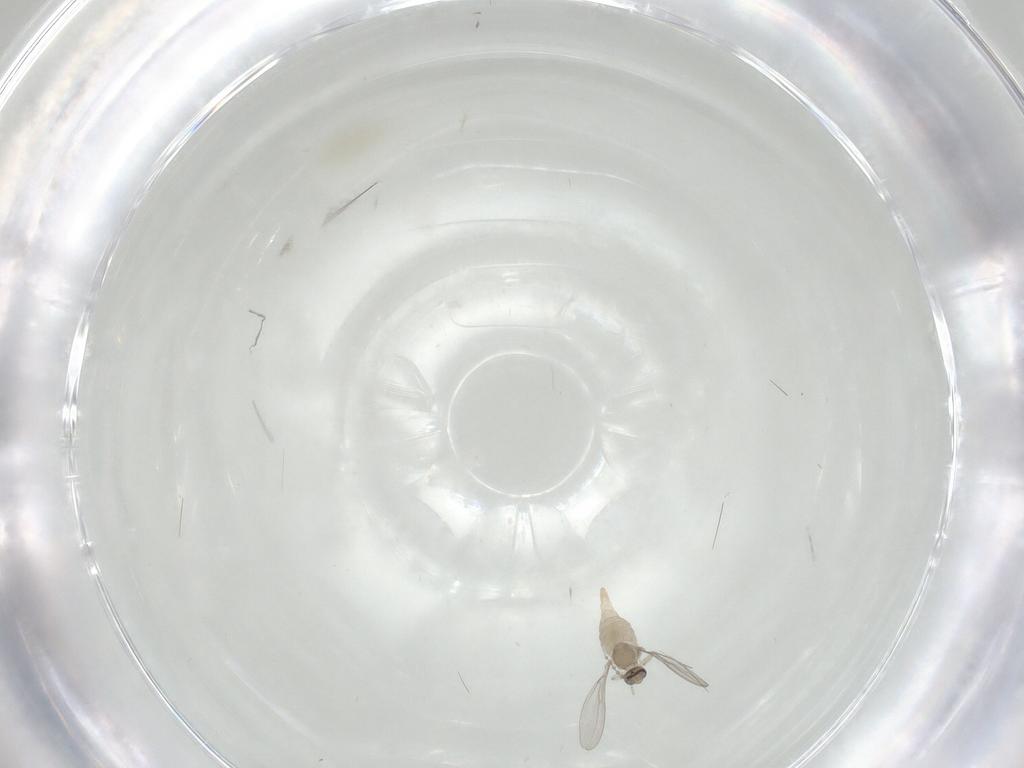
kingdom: Animalia
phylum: Arthropoda
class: Insecta
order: Diptera
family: Cecidomyiidae
